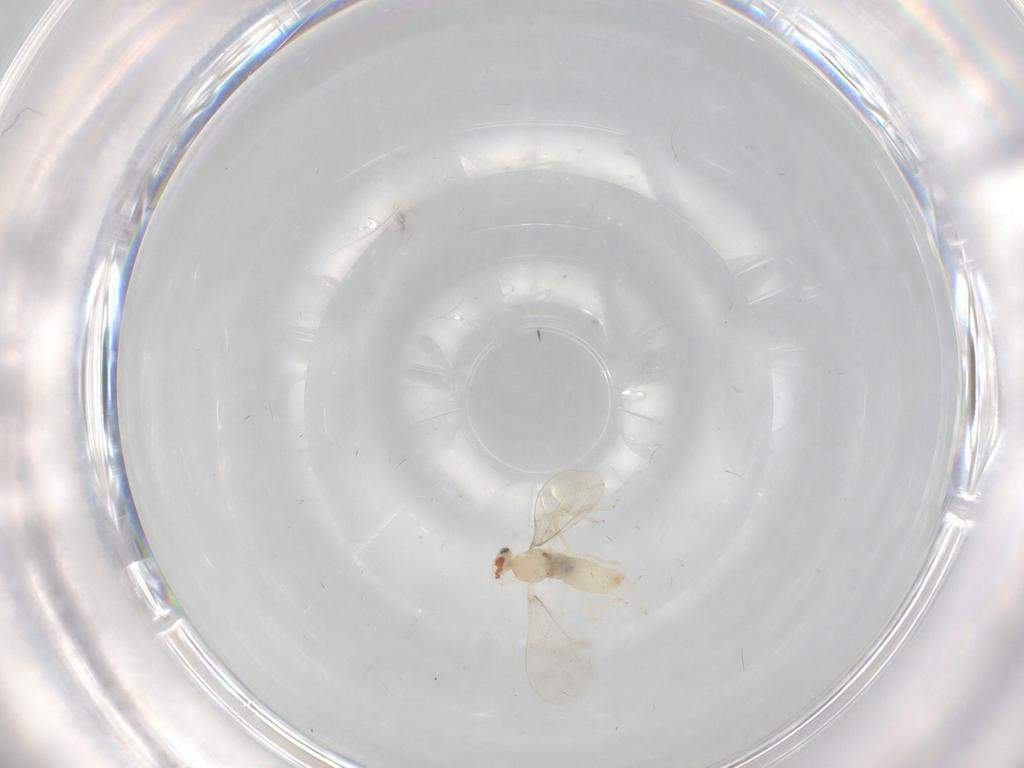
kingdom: Animalia
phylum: Arthropoda
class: Insecta
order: Diptera
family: Cecidomyiidae
